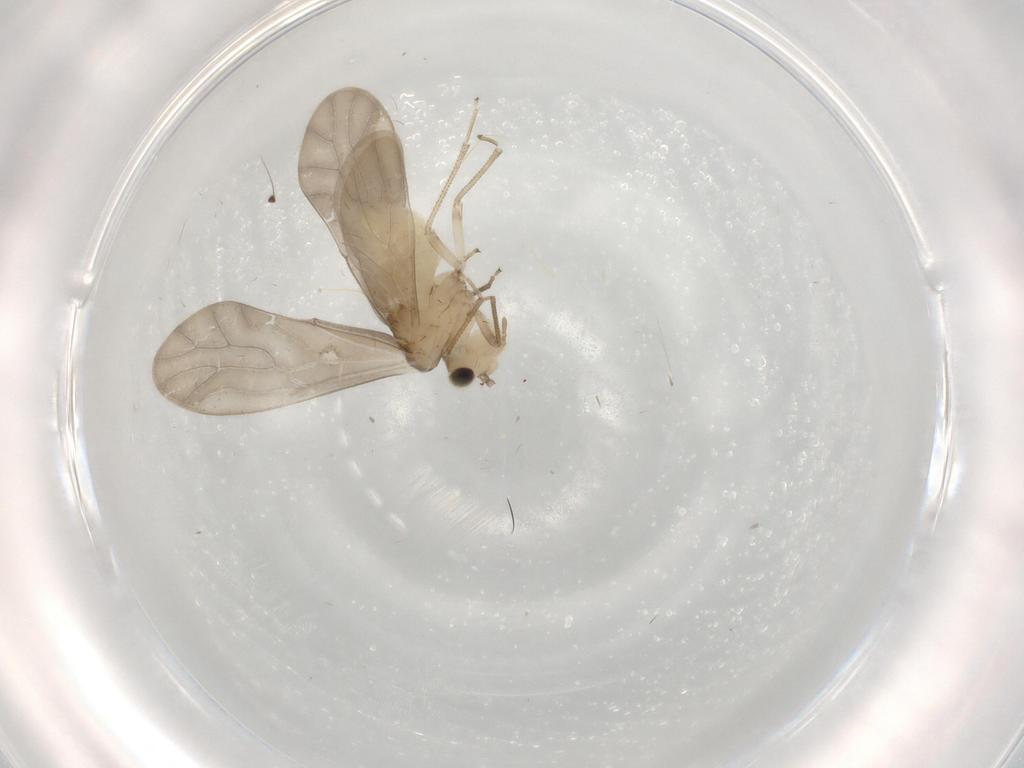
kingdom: Animalia
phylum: Arthropoda
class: Insecta
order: Psocodea
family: Caeciliusidae
